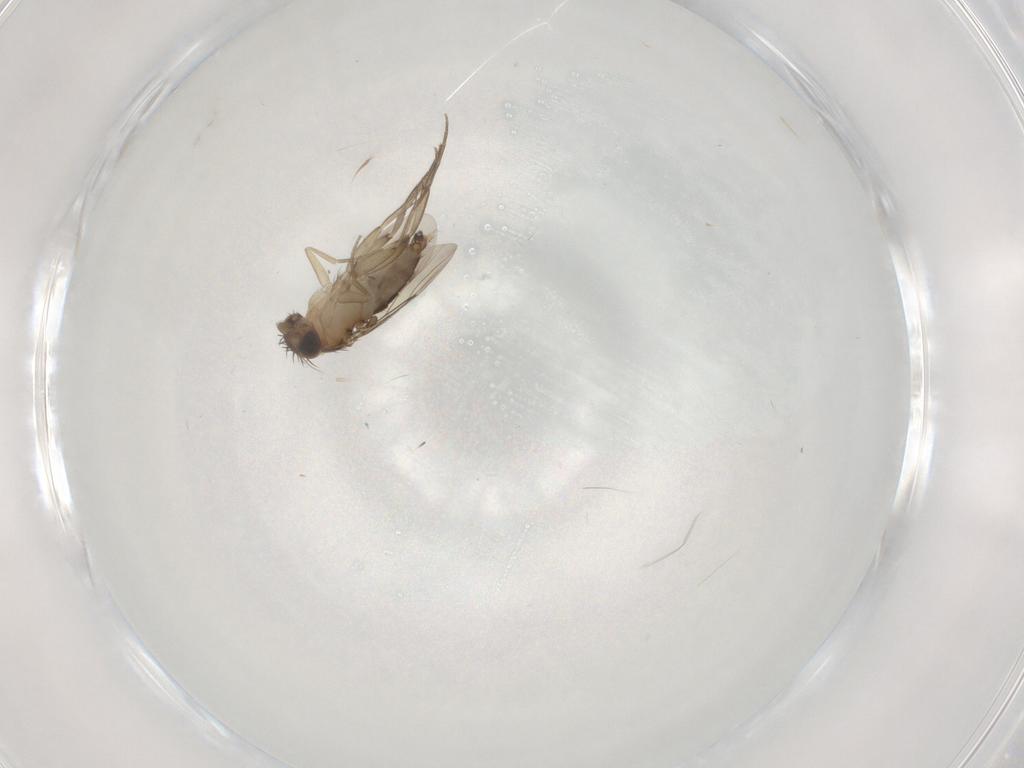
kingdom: Animalia
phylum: Arthropoda
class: Insecta
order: Diptera
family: Phoridae
